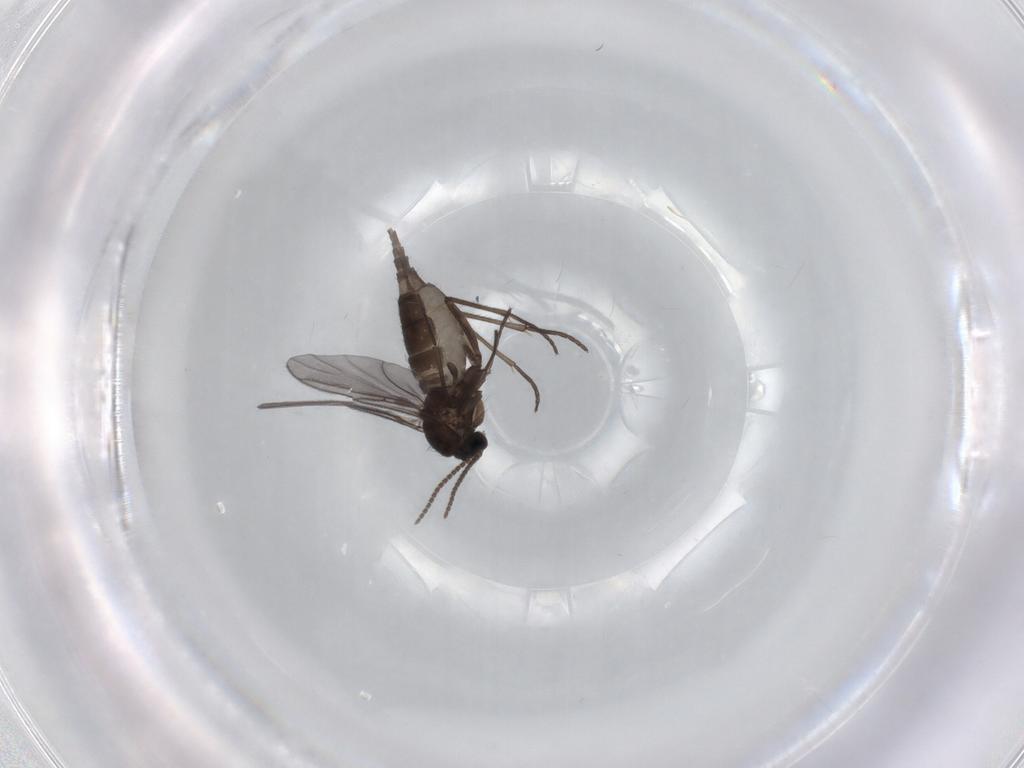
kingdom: Animalia
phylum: Arthropoda
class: Insecta
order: Diptera
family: Sciaridae
